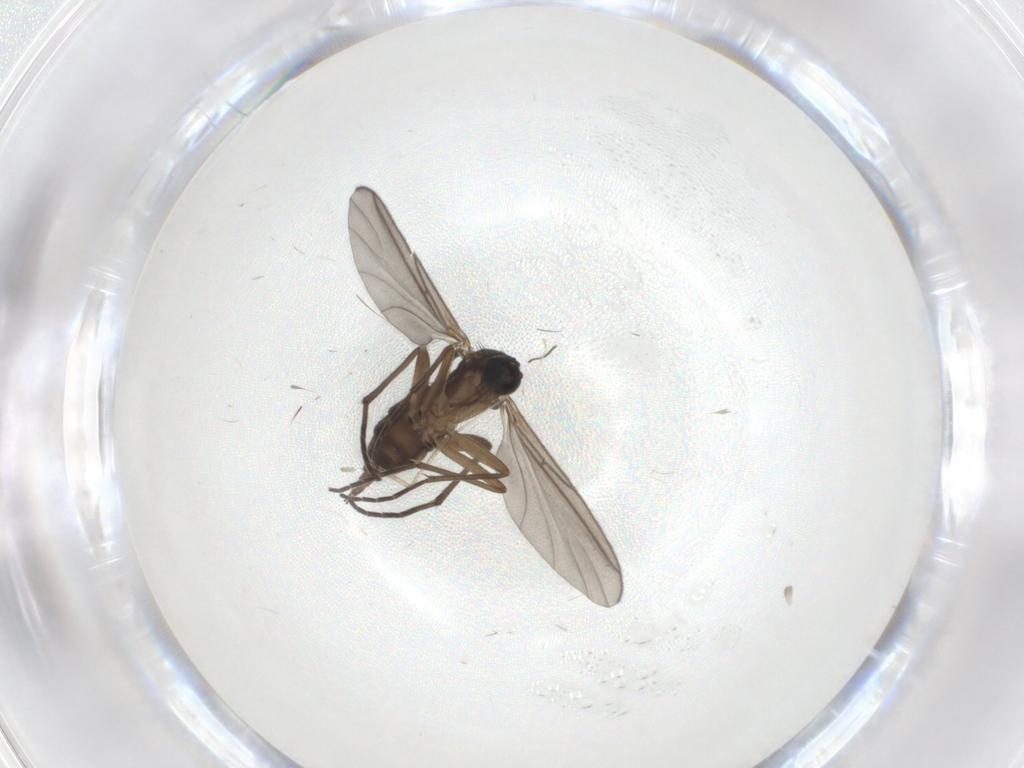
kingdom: Animalia
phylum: Arthropoda
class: Insecta
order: Diptera
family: Sciaridae
